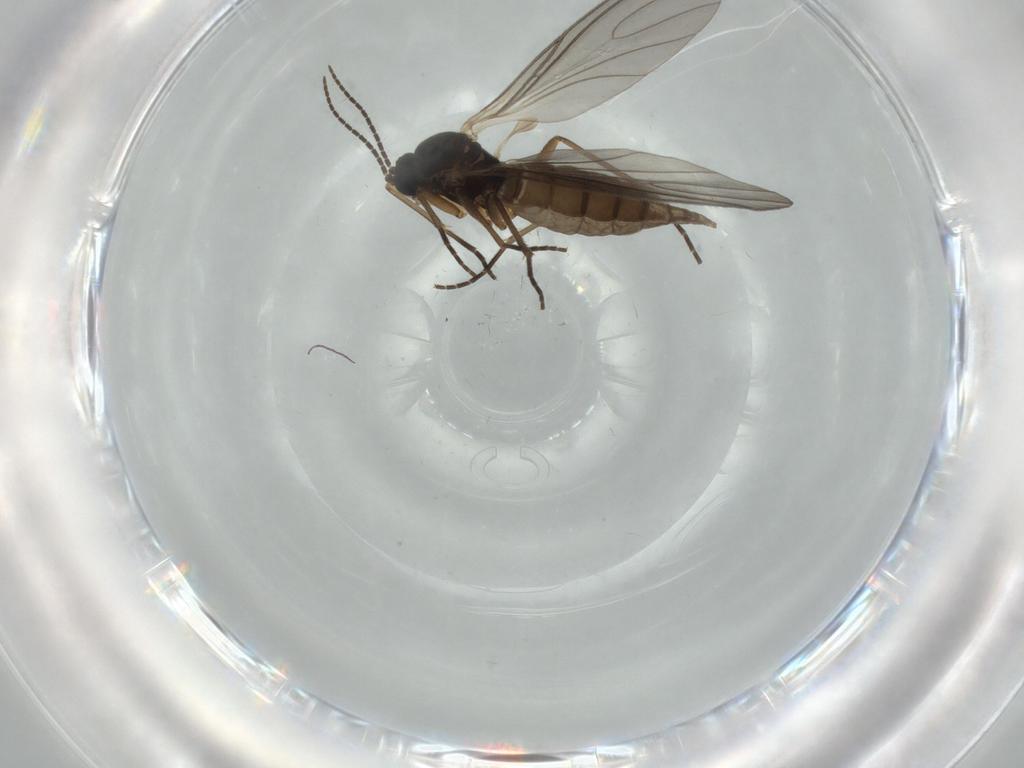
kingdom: Animalia
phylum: Arthropoda
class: Insecta
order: Diptera
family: Sciaridae
